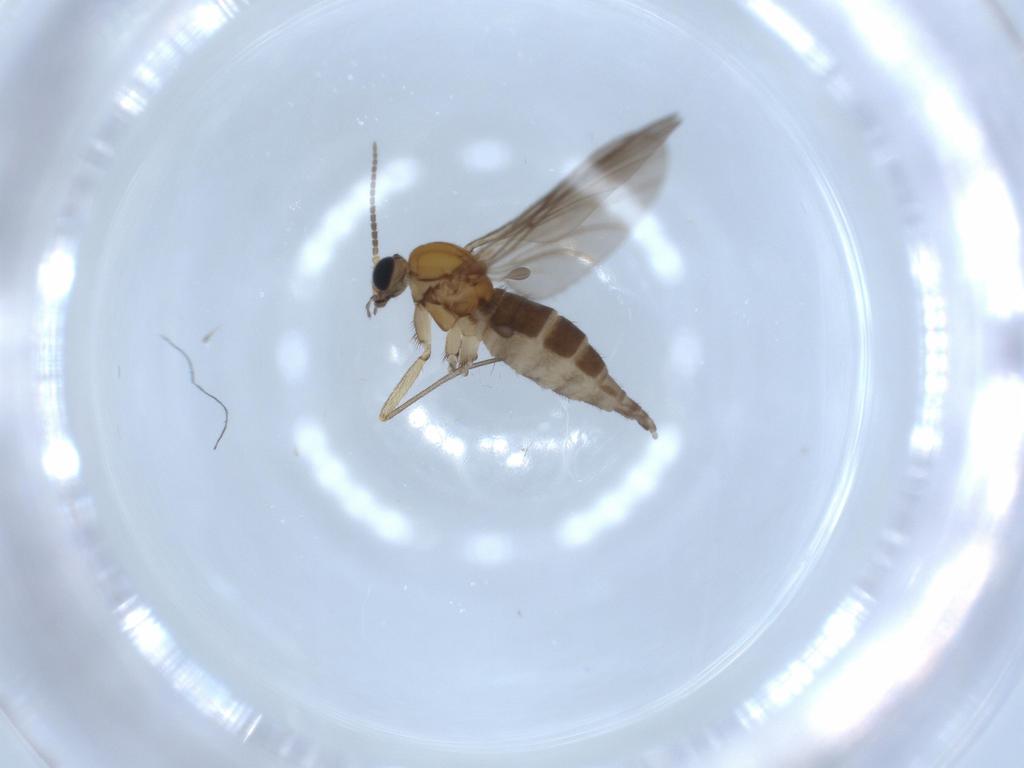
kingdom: Animalia
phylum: Arthropoda
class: Insecta
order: Diptera
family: Sciaridae
